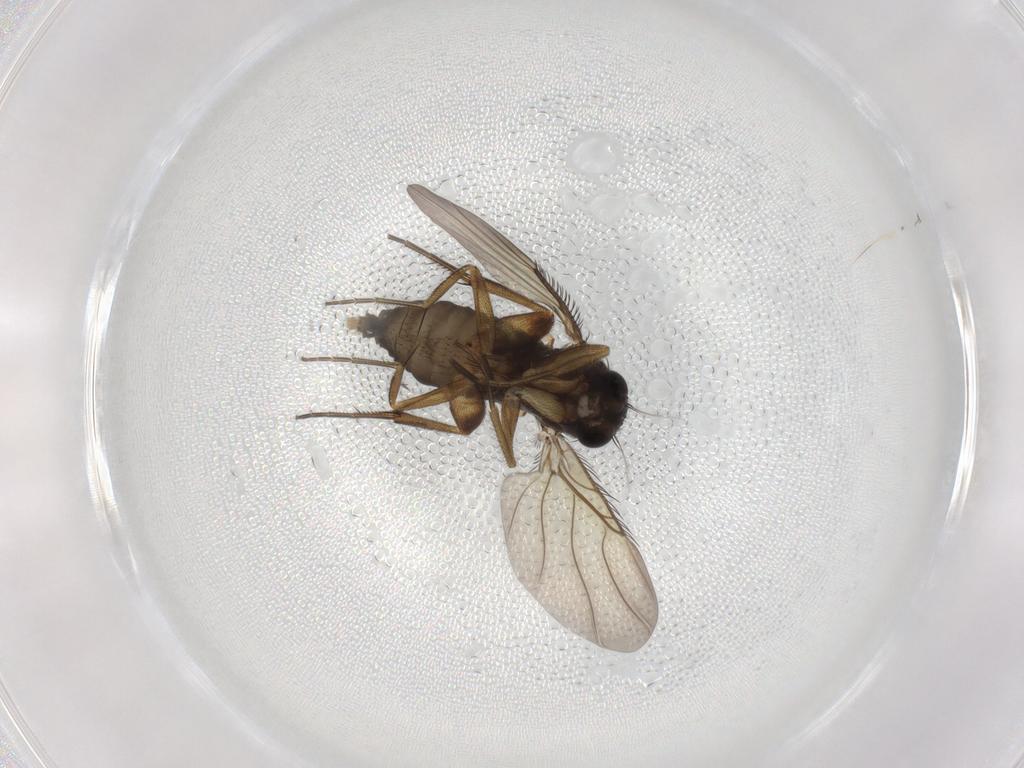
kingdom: Animalia
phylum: Arthropoda
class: Insecta
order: Diptera
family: Phoridae
